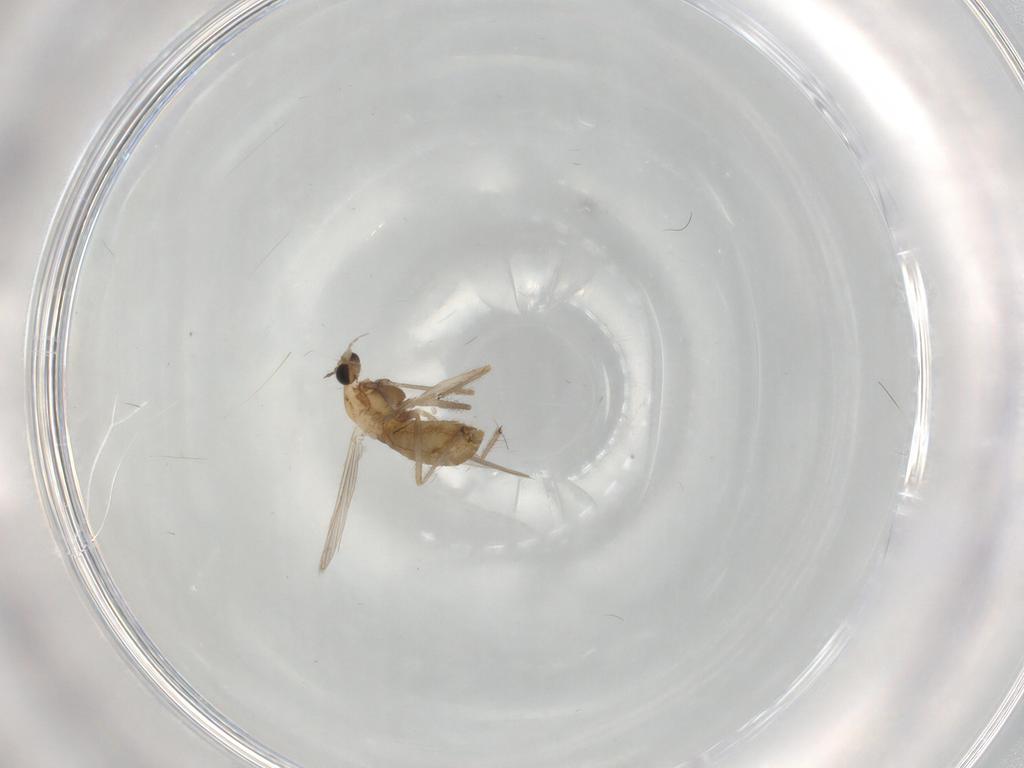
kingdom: Animalia
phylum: Arthropoda
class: Insecta
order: Diptera
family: Chironomidae
